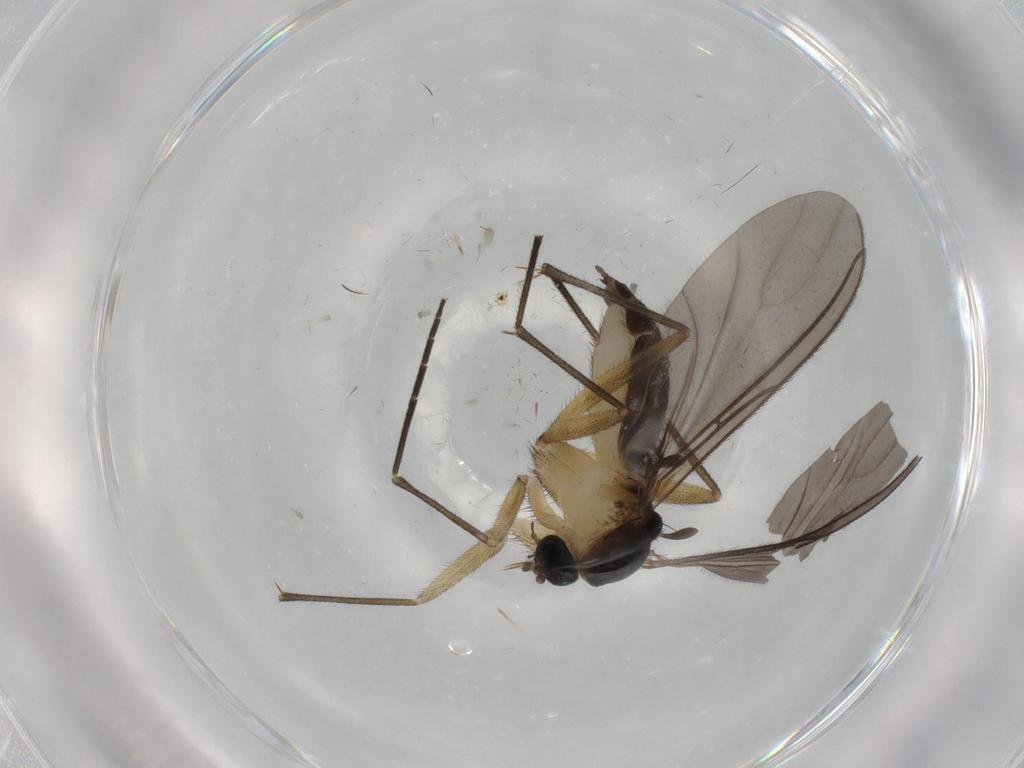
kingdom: Animalia
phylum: Arthropoda
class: Insecta
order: Diptera
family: Sciaridae
